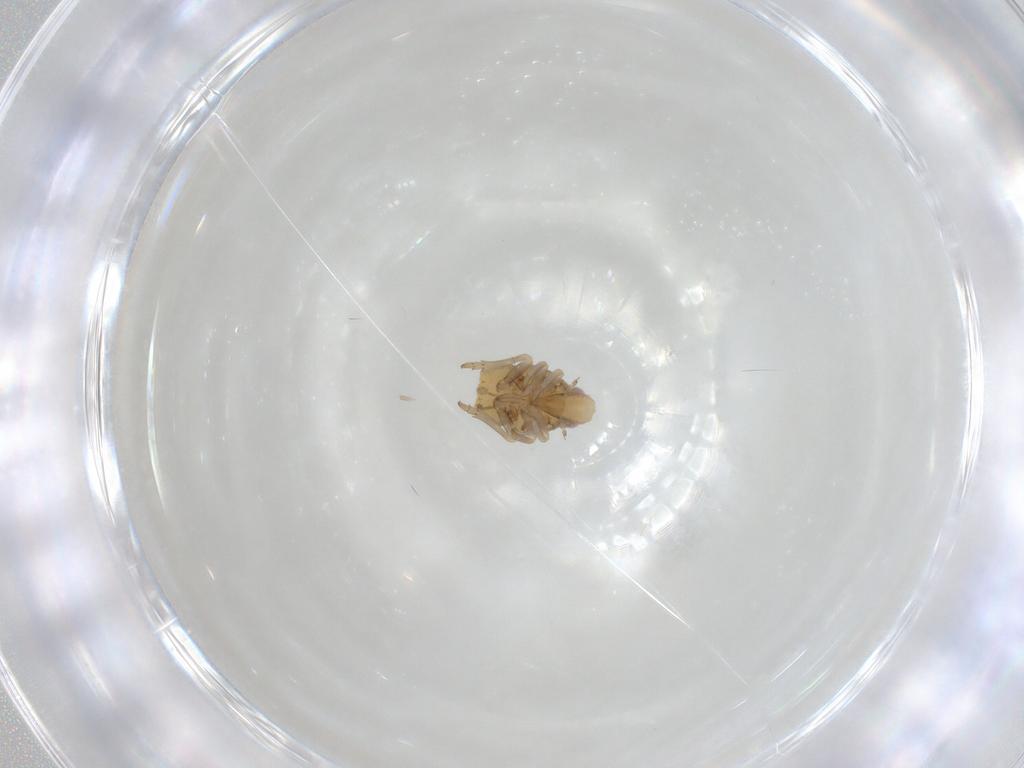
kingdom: Animalia
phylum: Arthropoda
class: Insecta
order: Hemiptera
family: Flatidae
